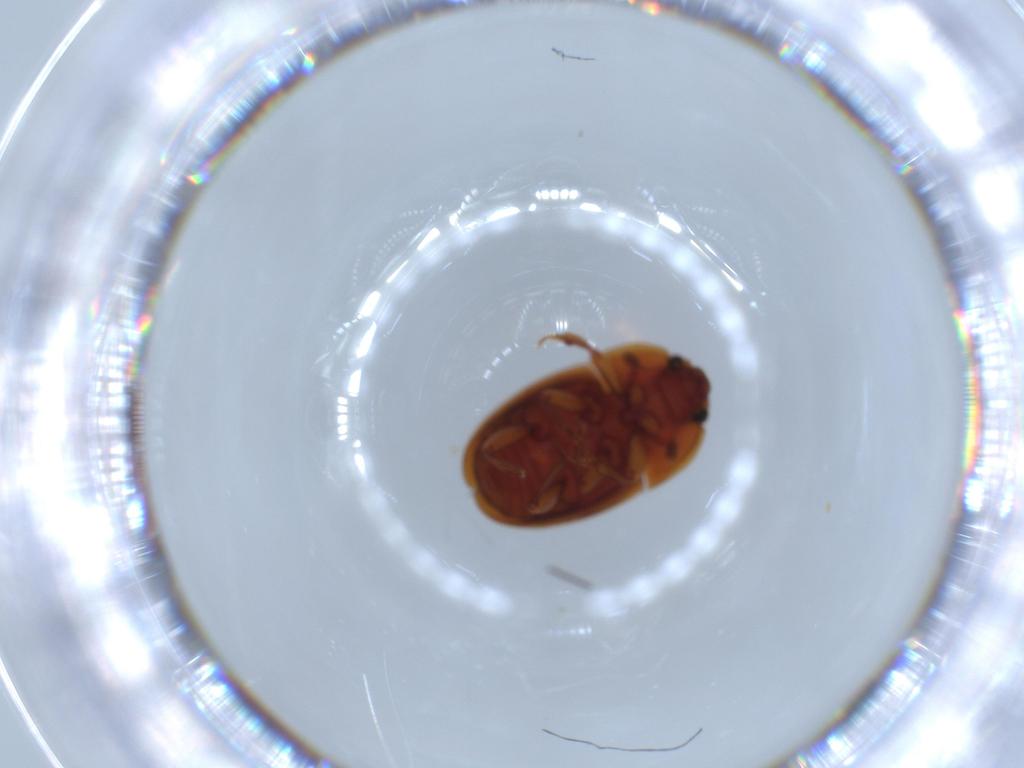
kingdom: Animalia
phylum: Arthropoda
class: Insecta
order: Coleoptera
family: Nitidulidae
